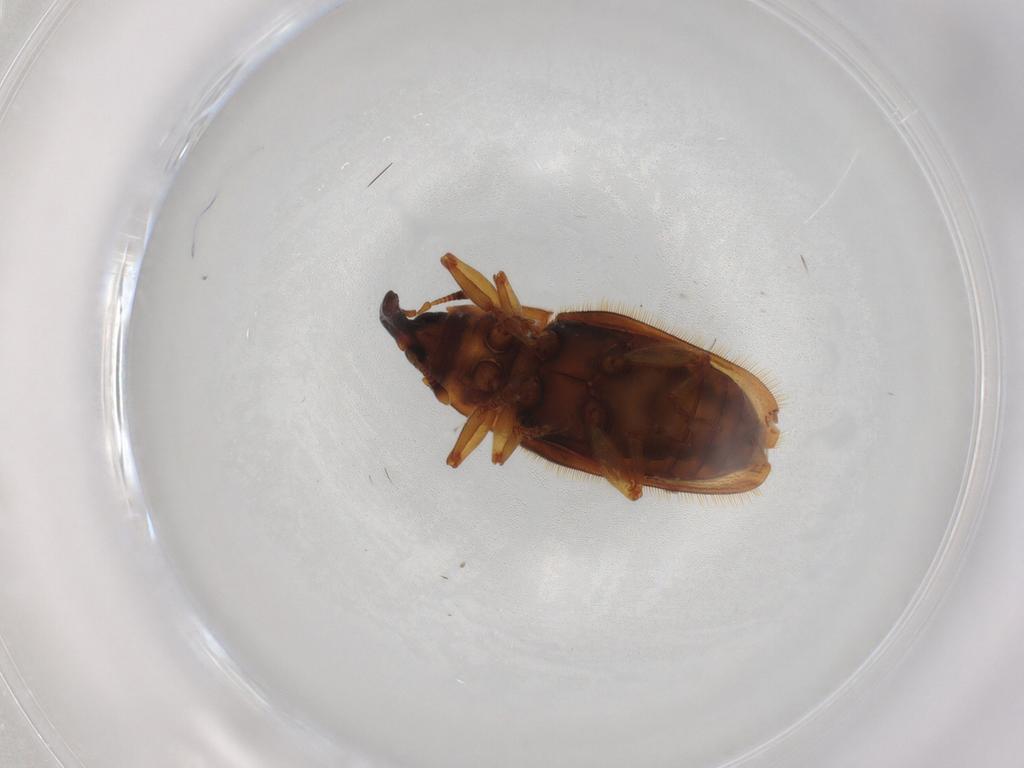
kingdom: Animalia
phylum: Arthropoda
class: Insecta
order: Coleoptera
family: Curculionidae
